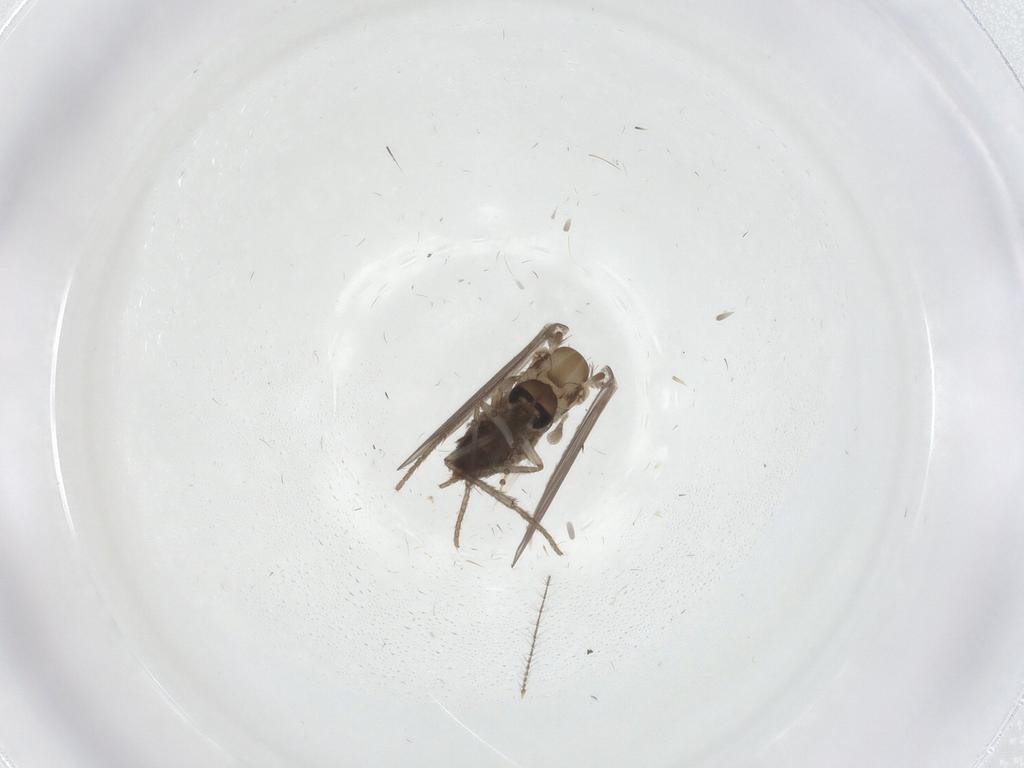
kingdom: Animalia
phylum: Arthropoda
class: Insecta
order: Diptera
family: Psychodidae
